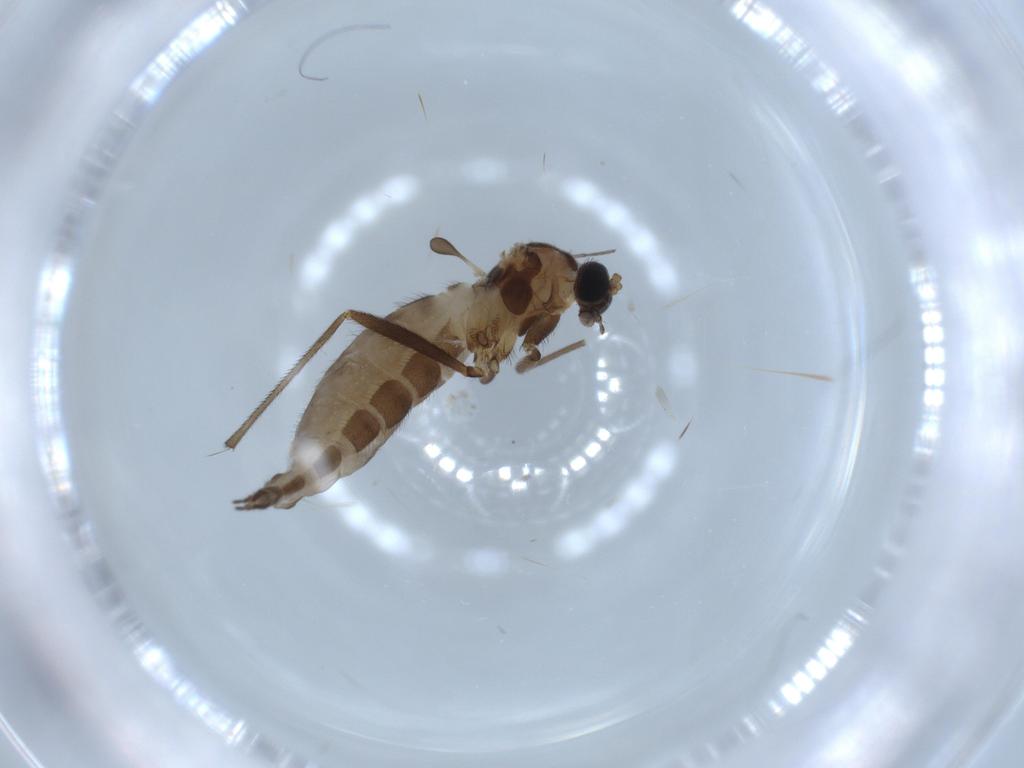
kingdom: Animalia
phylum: Arthropoda
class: Insecta
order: Diptera
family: Sciaridae
